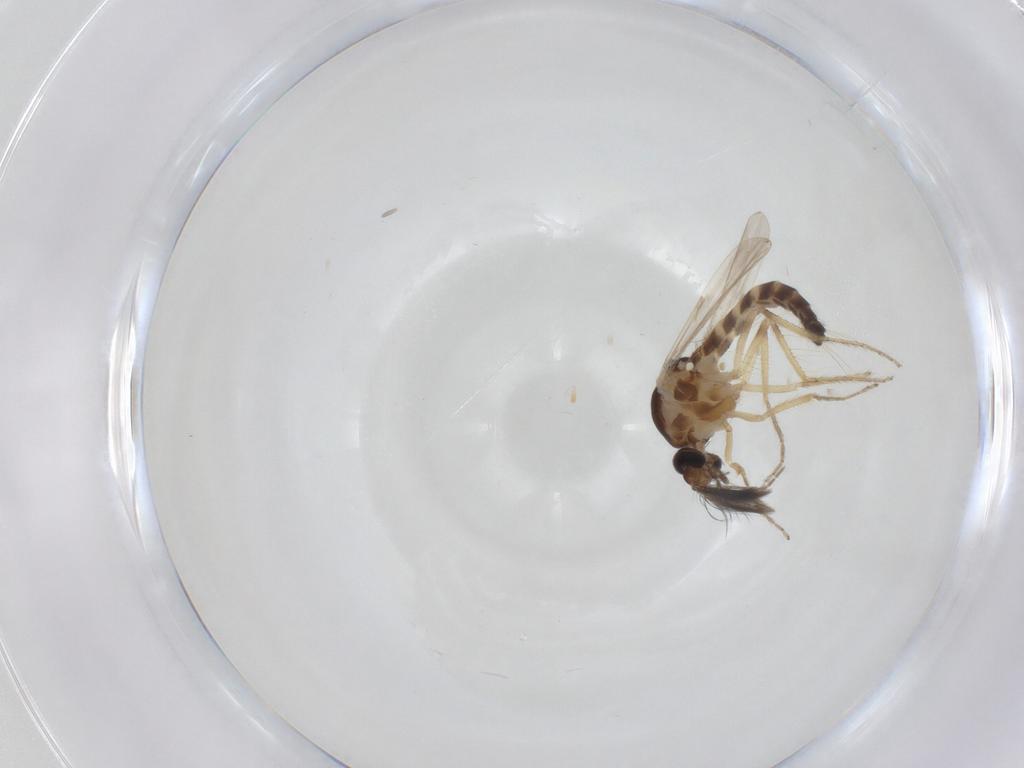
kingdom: Animalia
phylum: Arthropoda
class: Insecta
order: Diptera
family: Ceratopogonidae
